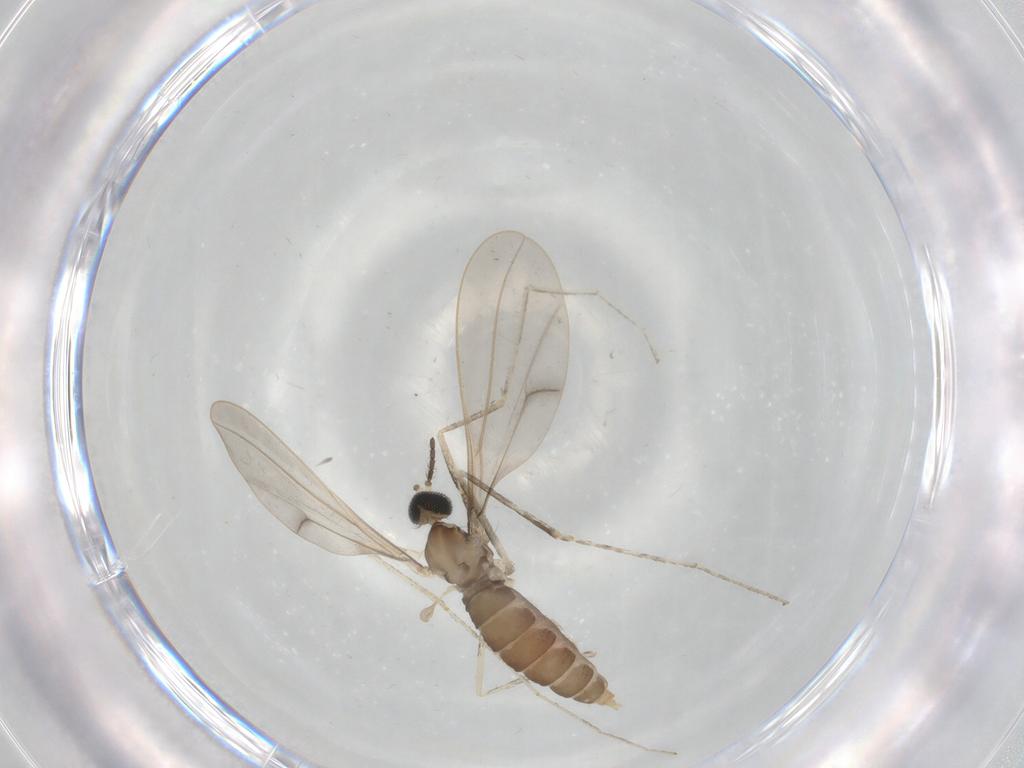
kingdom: Animalia
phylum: Arthropoda
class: Insecta
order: Diptera
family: Cecidomyiidae
